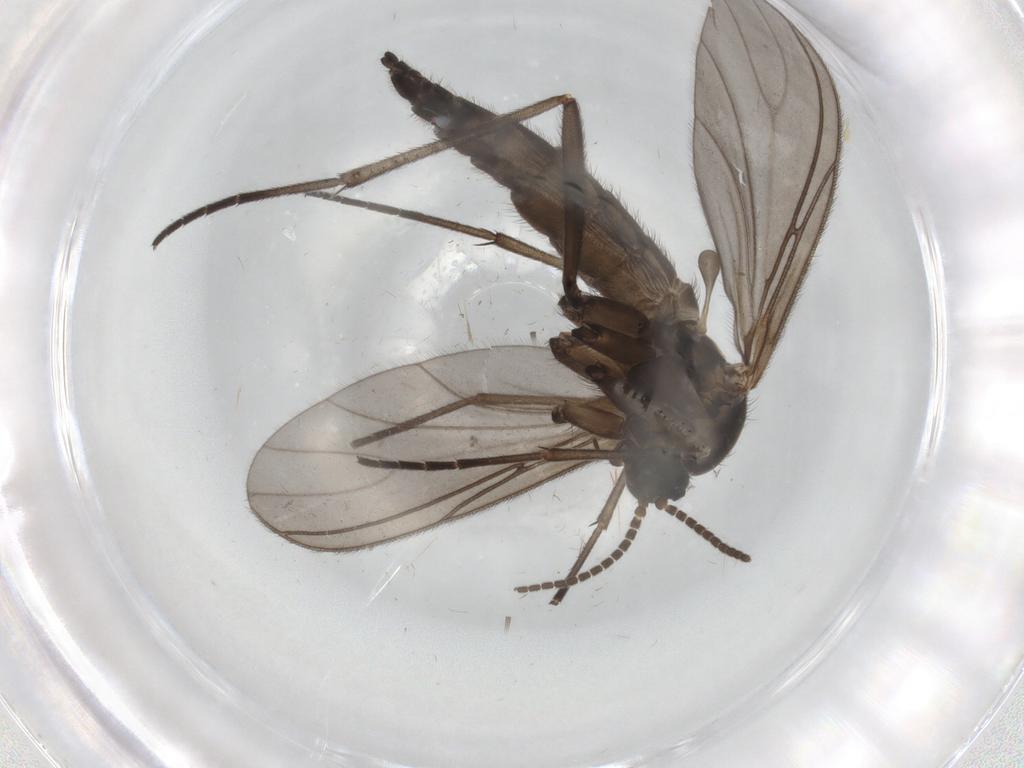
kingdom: Animalia
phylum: Arthropoda
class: Insecta
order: Diptera
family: Sciaridae
